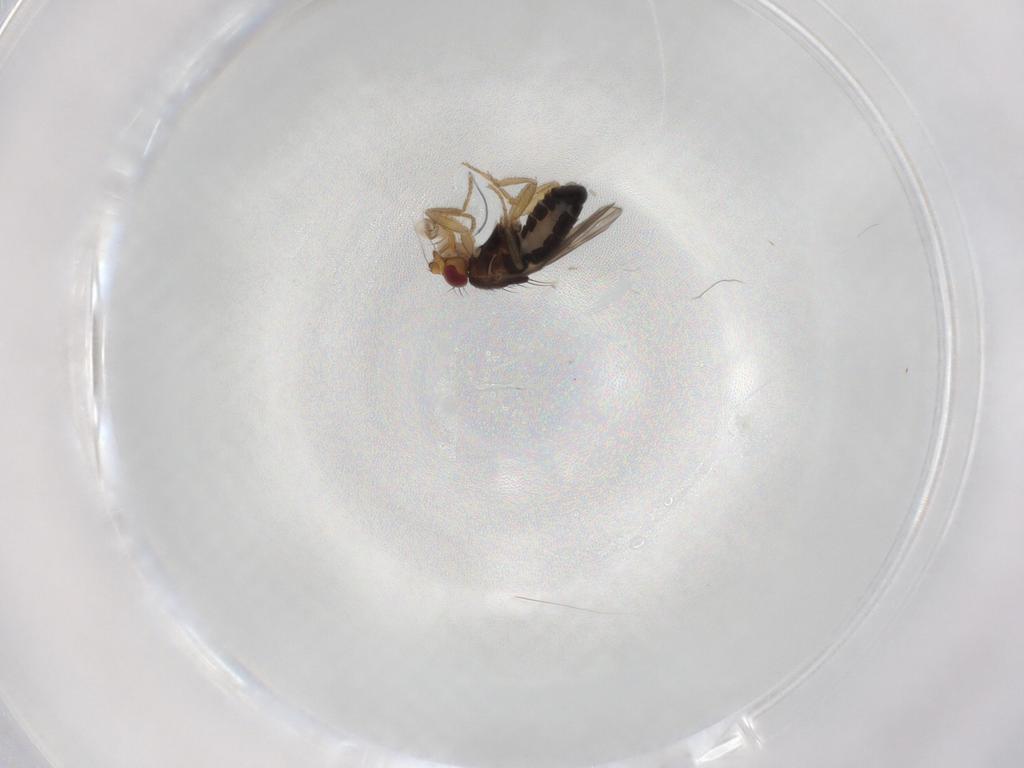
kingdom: Animalia
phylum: Arthropoda
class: Insecta
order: Diptera
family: Sphaeroceridae
